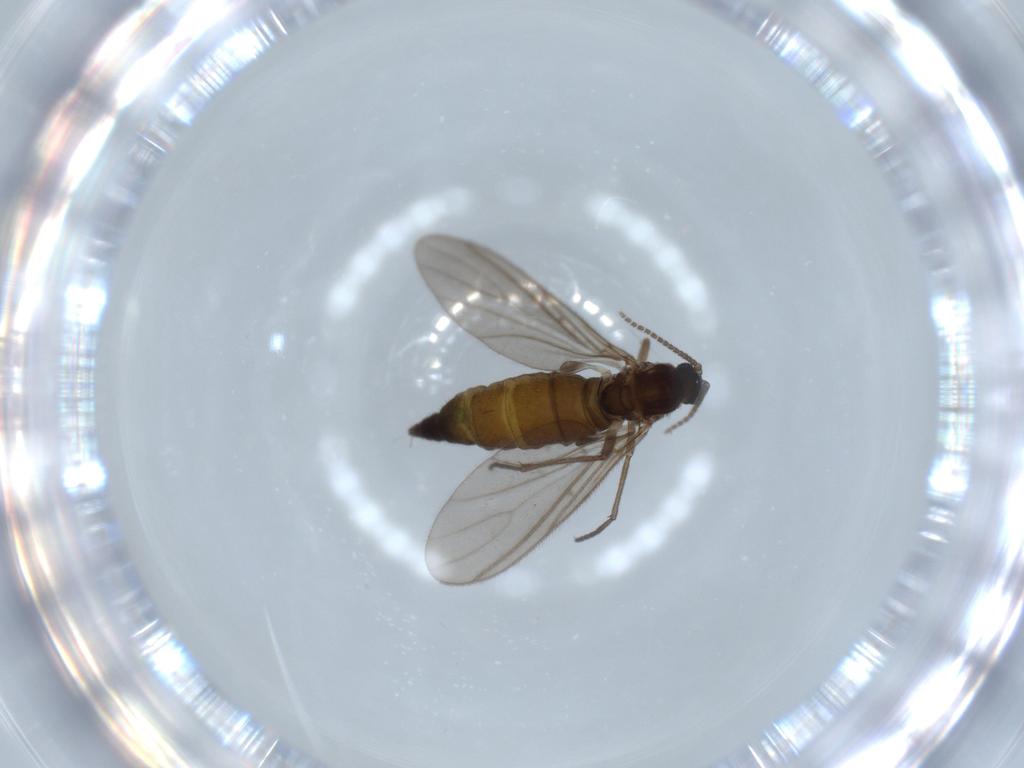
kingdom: Animalia
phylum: Arthropoda
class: Insecta
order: Diptera
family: Sciaridae
